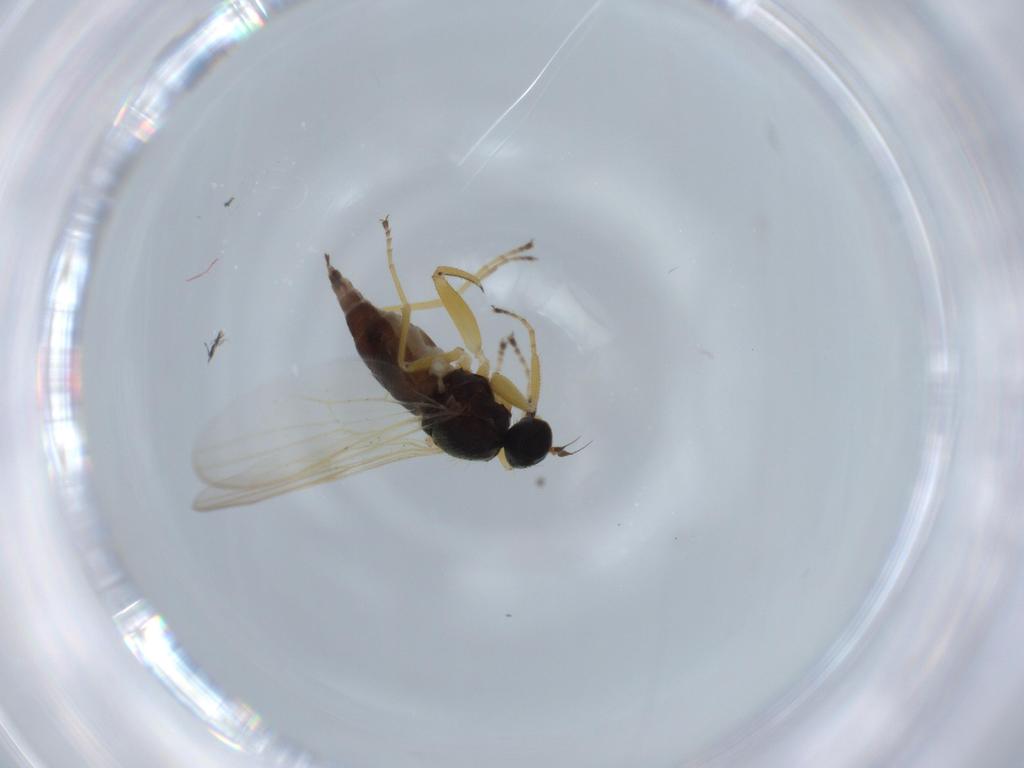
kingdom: Animalia
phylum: Arthropoda
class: Insecta
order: Diptera
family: Hybotidae
